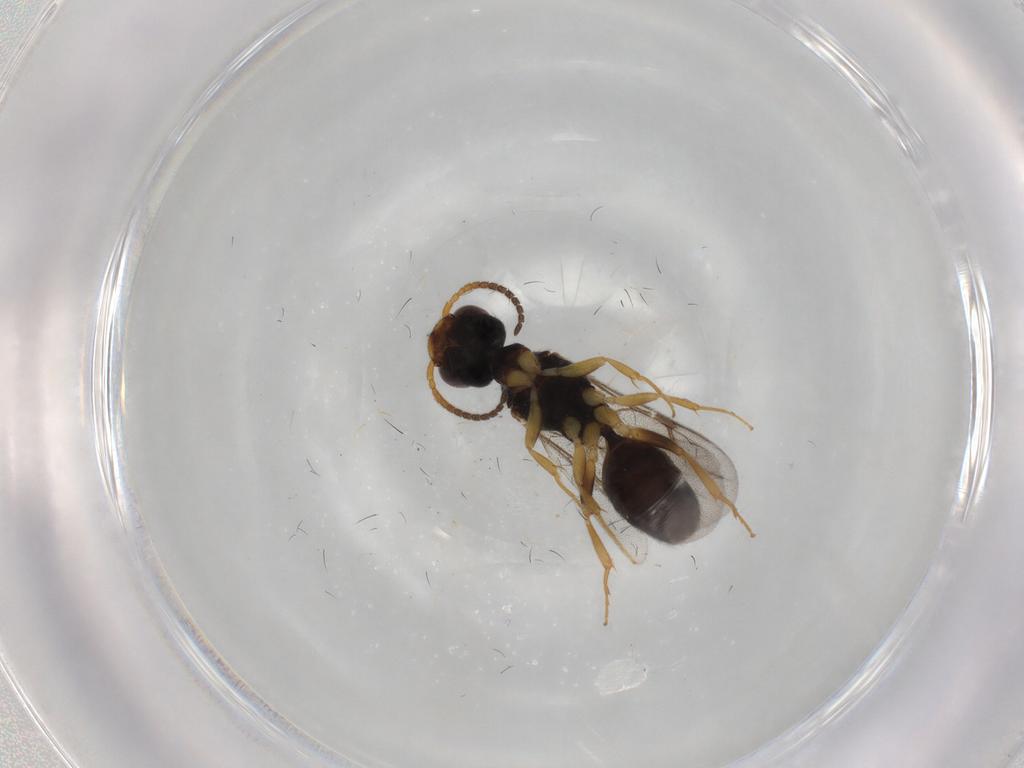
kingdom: Animalia
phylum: Arthropoda
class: Insecta
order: Hymenoptera
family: Bethylidae
